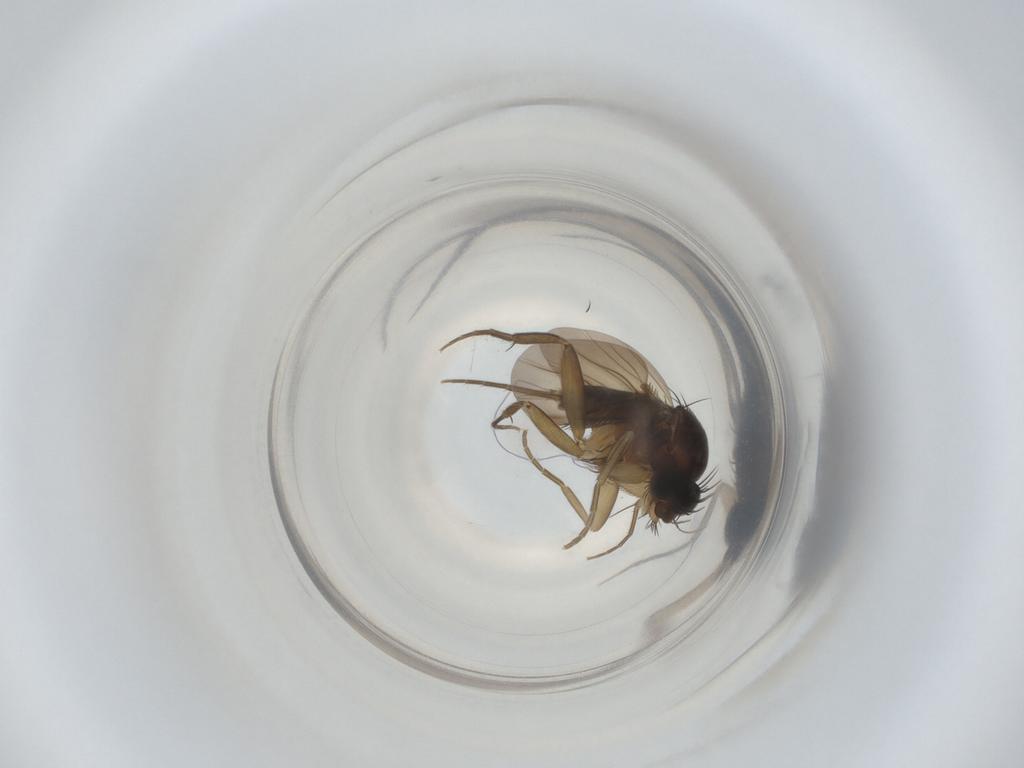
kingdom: Animalia
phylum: Arthropoda
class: Insecta
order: Diptera
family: Phoridae
